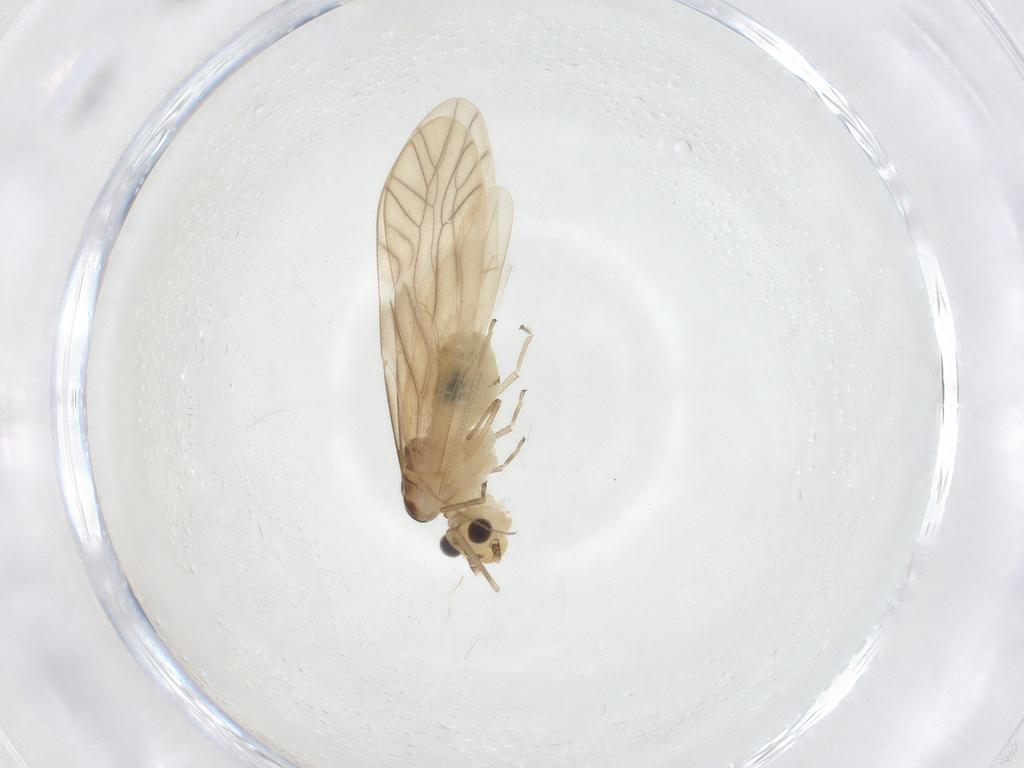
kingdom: Animalia
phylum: Arthropoda
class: Insecta
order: Psocodea
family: Caeciliusidae
